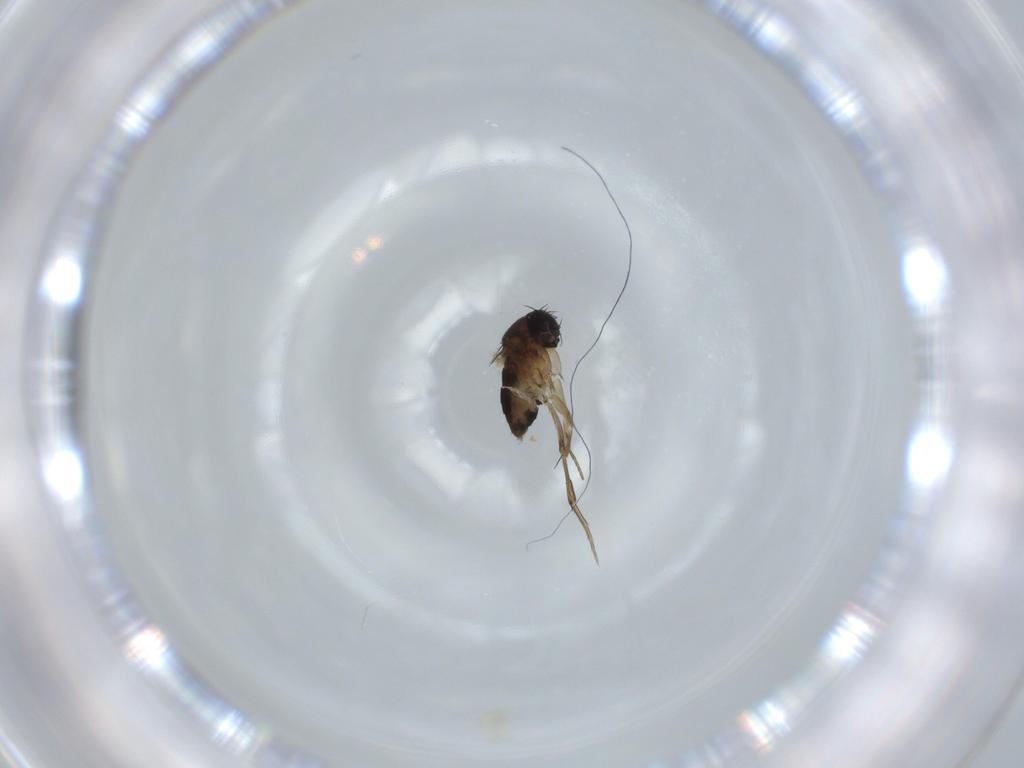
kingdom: Animalia
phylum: Arthropoda
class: Insecta
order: Diptera
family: Phoridae
